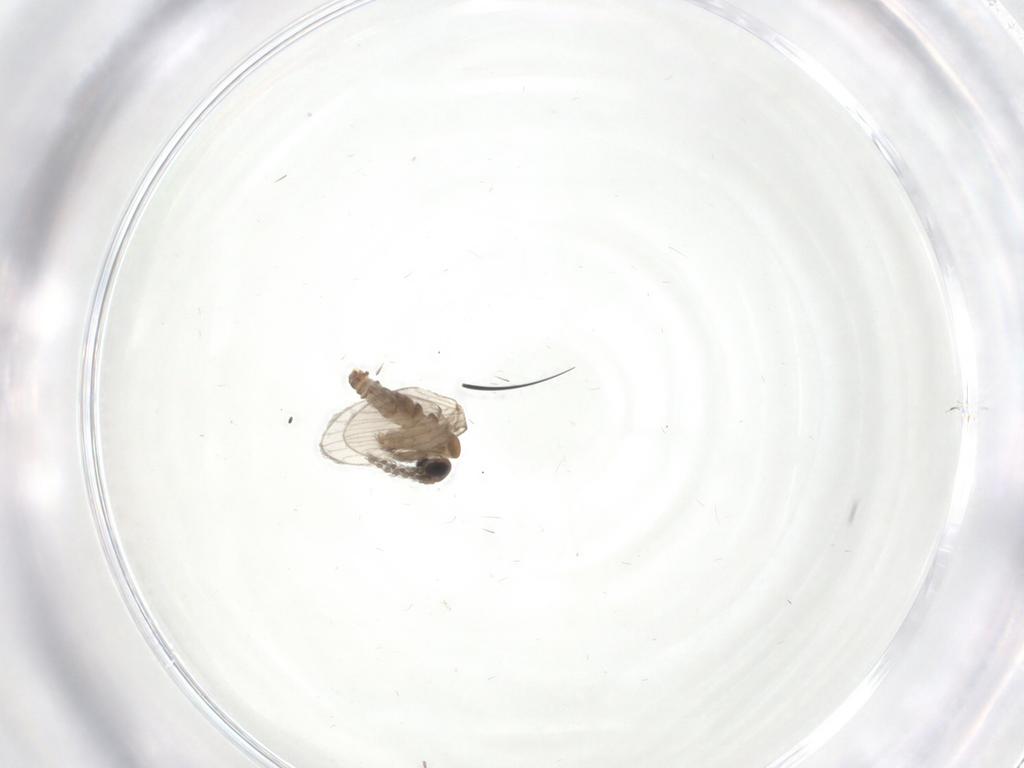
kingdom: Animalia
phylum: Arthropoda
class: Insecta
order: Diptera
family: Cecidomyiidae
